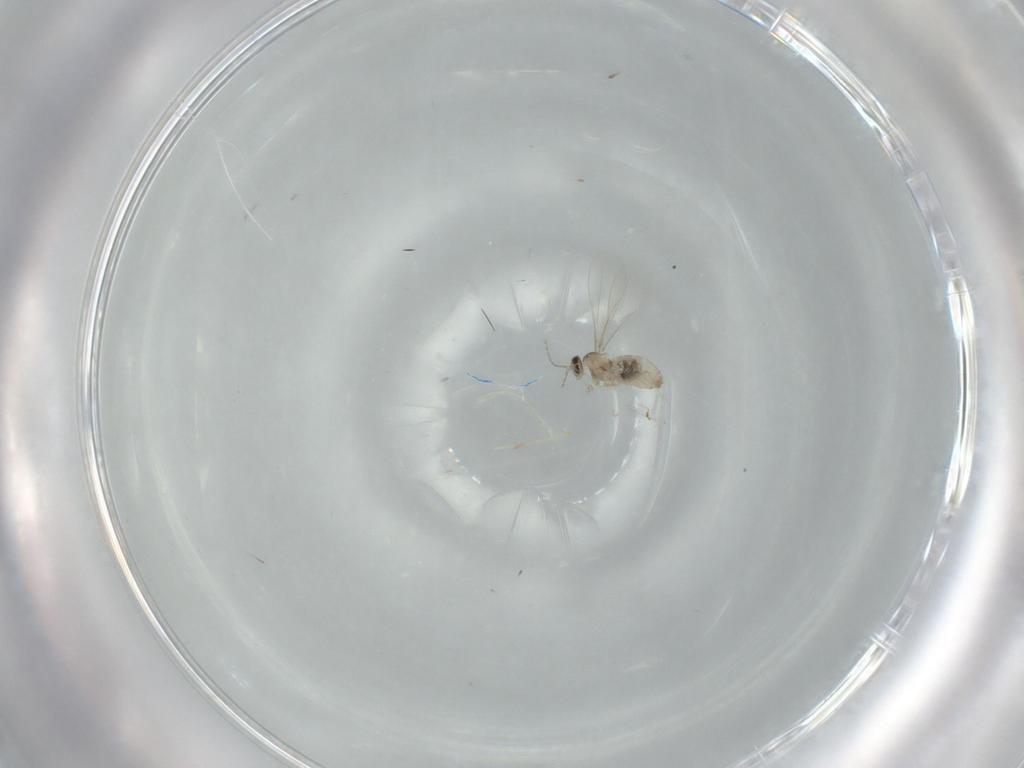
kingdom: Animalia
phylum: Arthropoda
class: Insecta
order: Diptera
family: Cecidomyiidae
